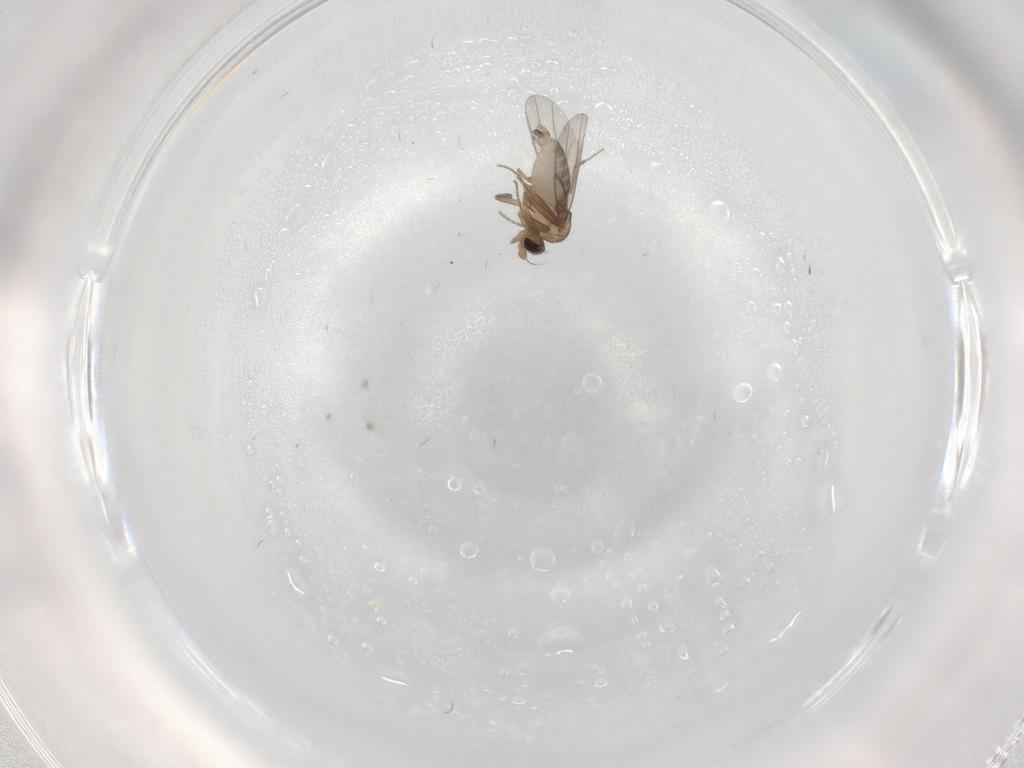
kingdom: Animalia
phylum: Arthropoda
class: Insecta
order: Diptera
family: Chironomidae
